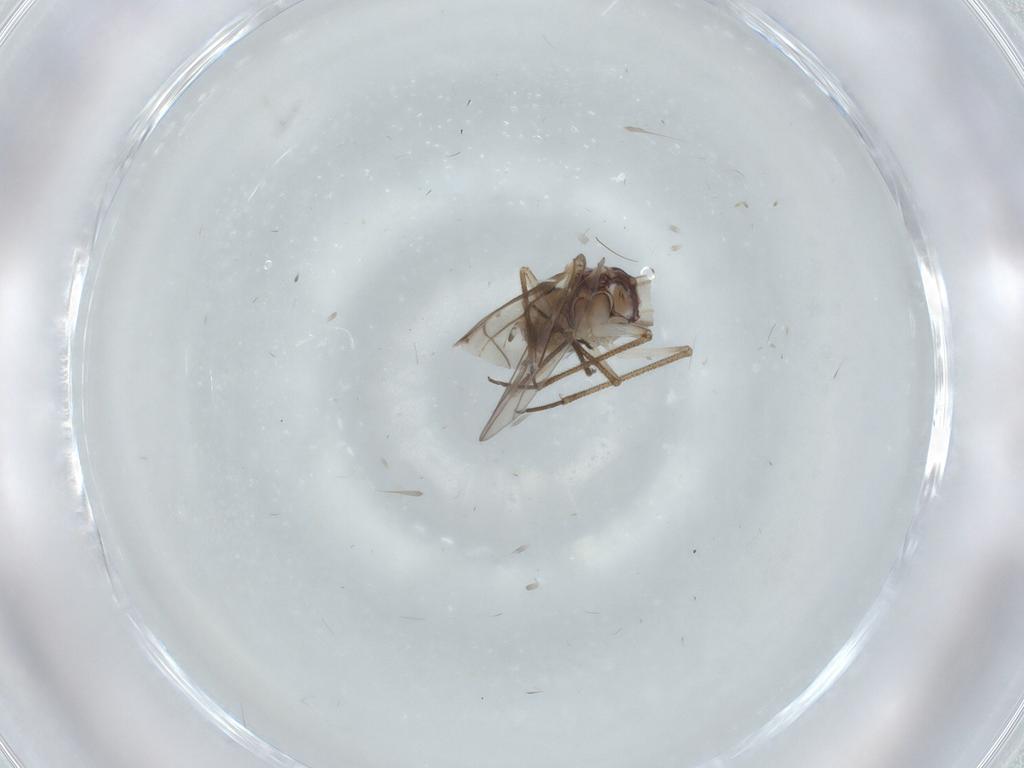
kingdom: Animalia
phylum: Arthropoda
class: Insecta
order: Psocodea
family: Psocidae
